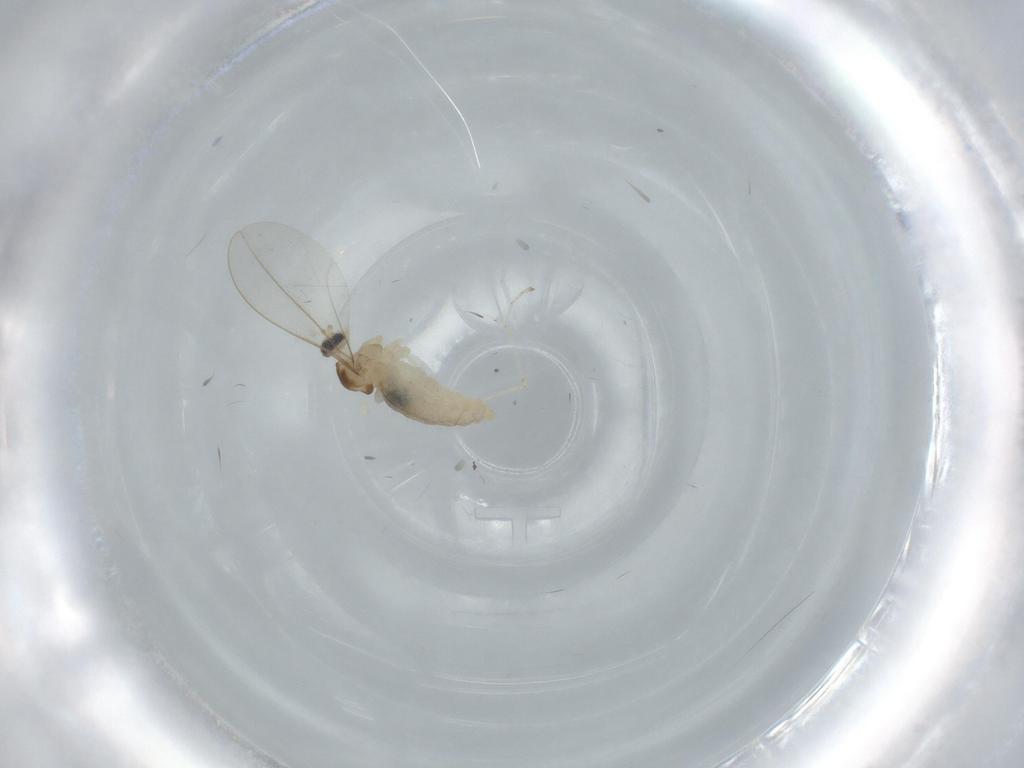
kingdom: Animalia
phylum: Arthropoda
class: Insecta
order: Diptera
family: Cecidomyiidae
